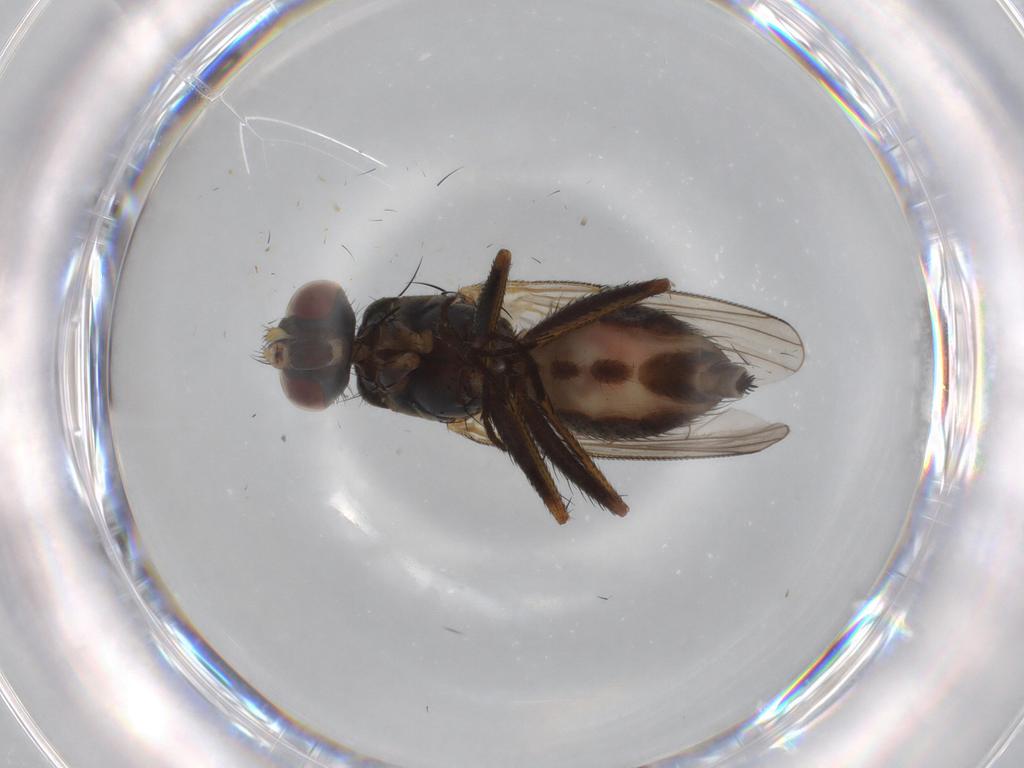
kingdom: Animalia
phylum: Arthropoda
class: Insecta
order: Diptera
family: Muscidae
